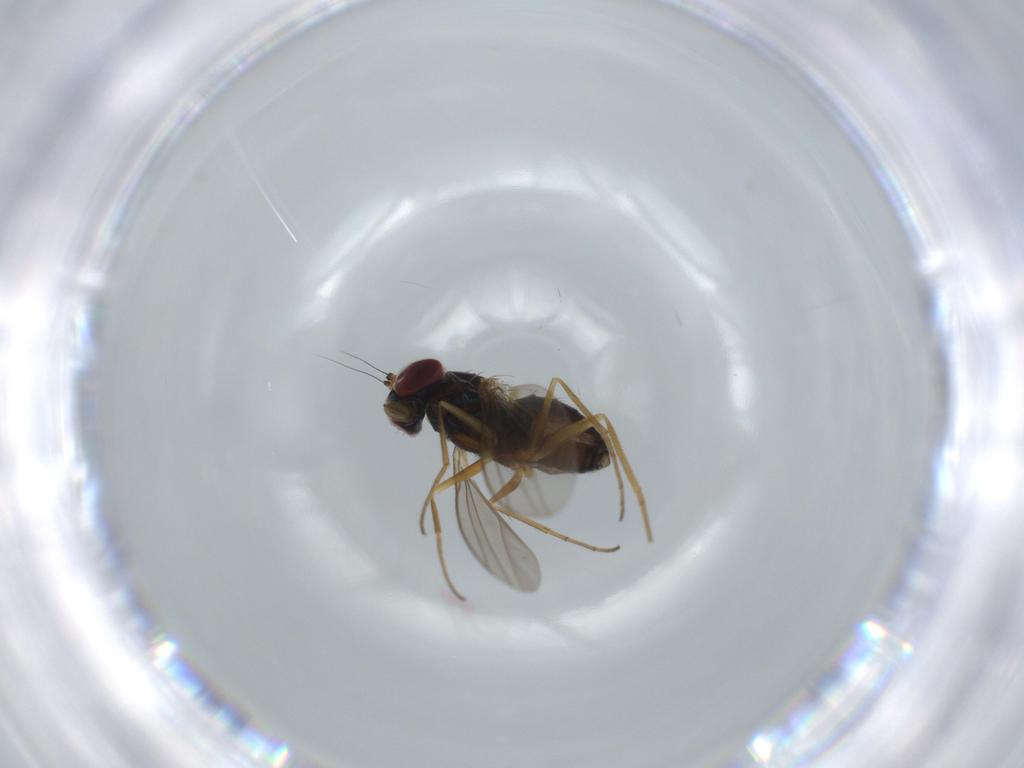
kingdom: Animalia
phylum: Arthropoda
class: Insecta
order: Diptera
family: Dolichopodidae
